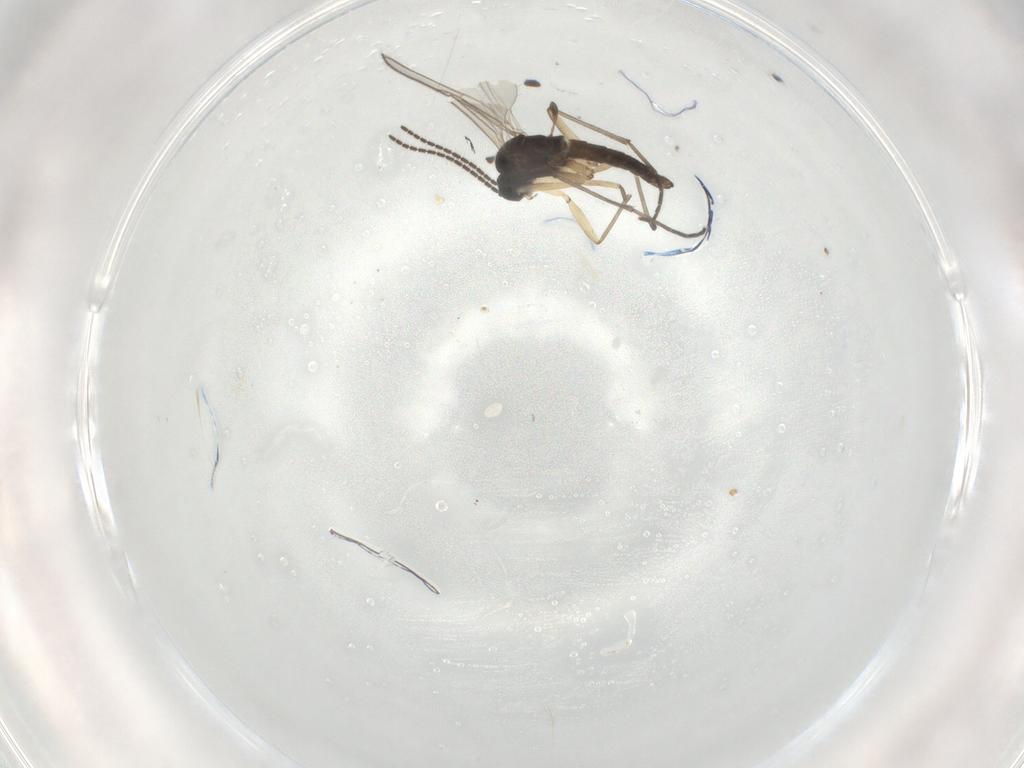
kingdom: Animalia
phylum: Arthropoda
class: Insecta
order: Diptera
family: Sciaridae
